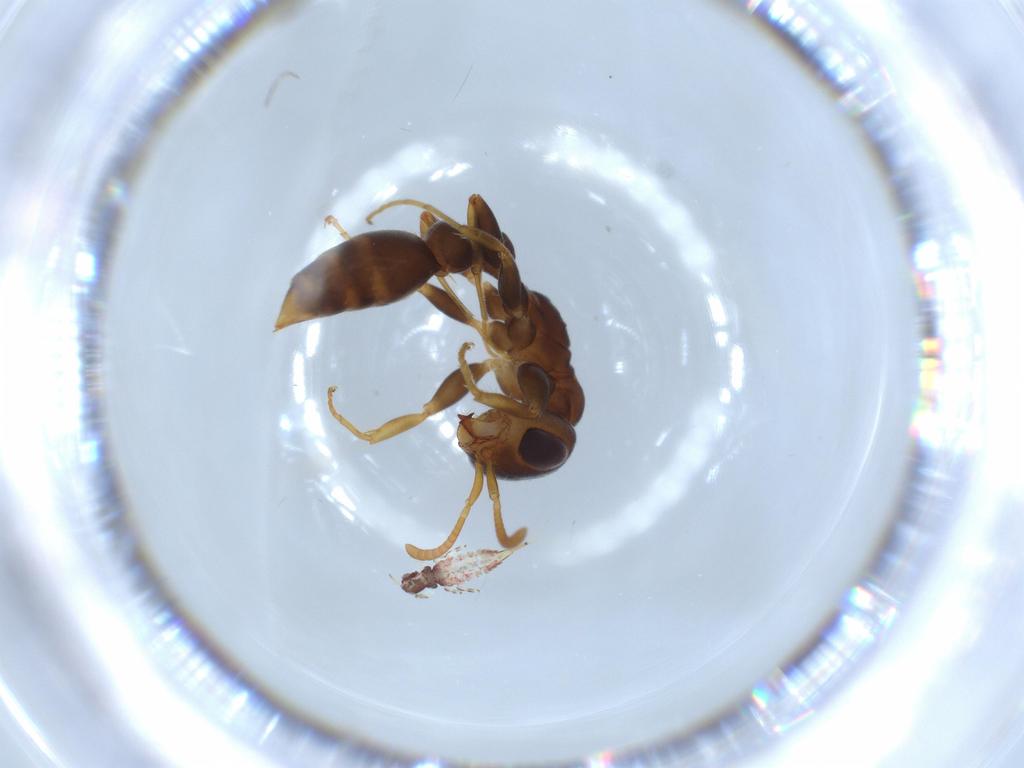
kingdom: Animalia
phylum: Arthropoda
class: Insecta
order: Hymenoptera
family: Formicidae
